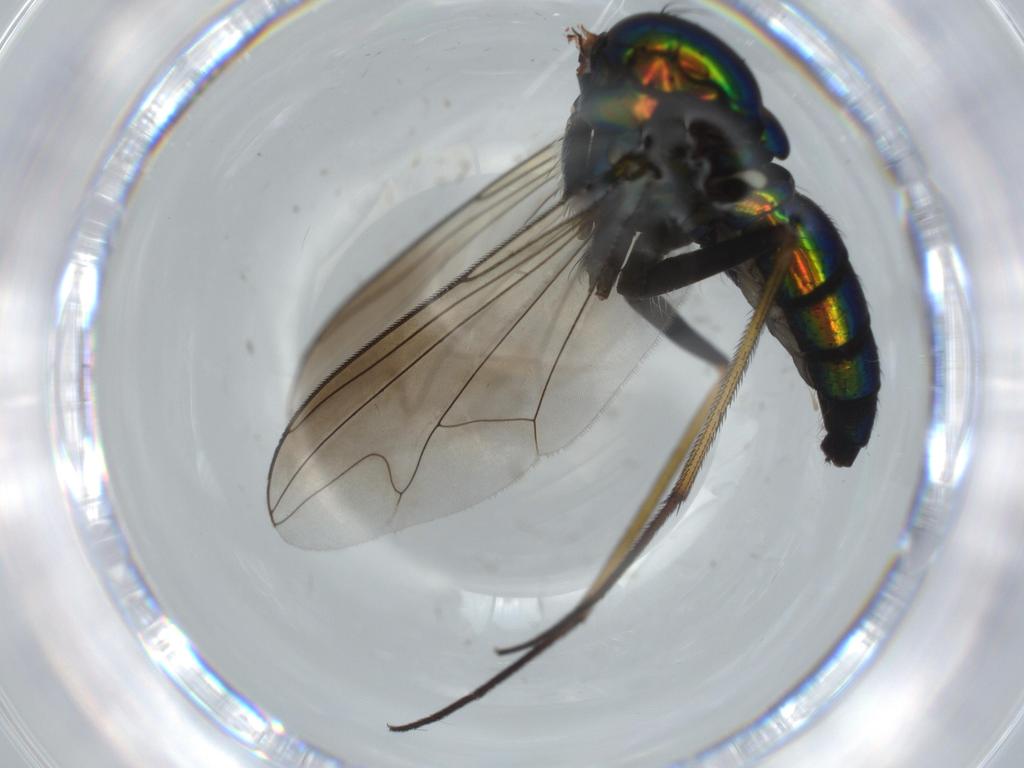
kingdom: Animalia
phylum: Arthropoda
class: Insecta
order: Diptera
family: Dolichopodidae
